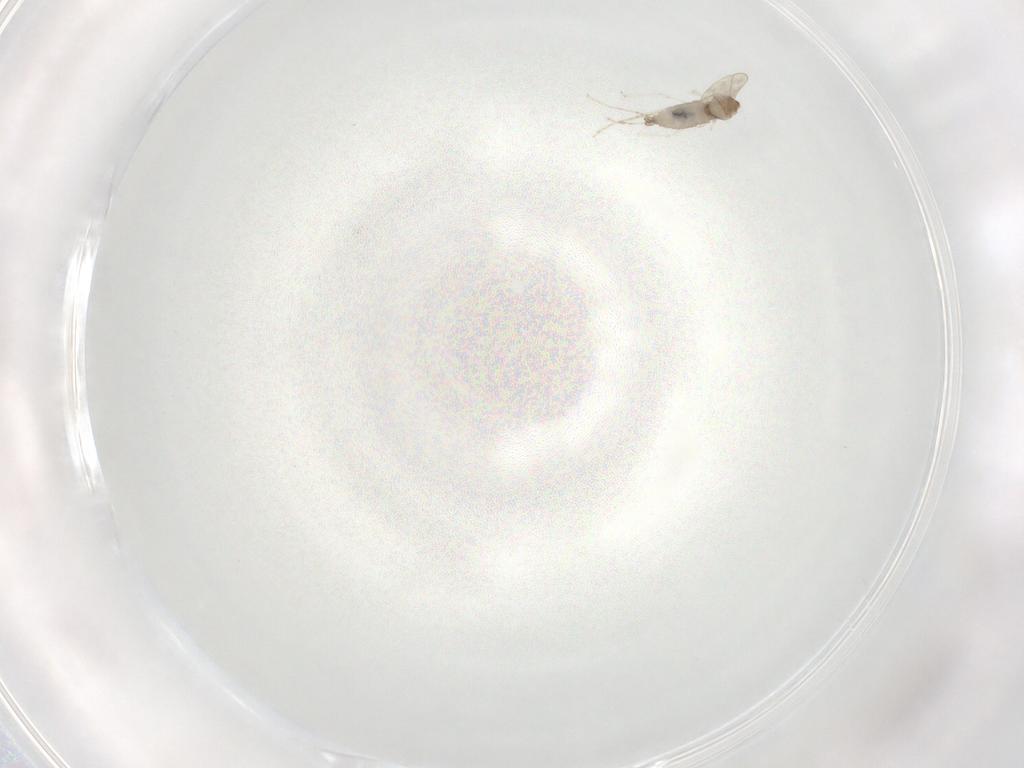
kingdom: Animalia
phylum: Arthropoda
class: Insecta
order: Diptera
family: Cecidomyiidae
